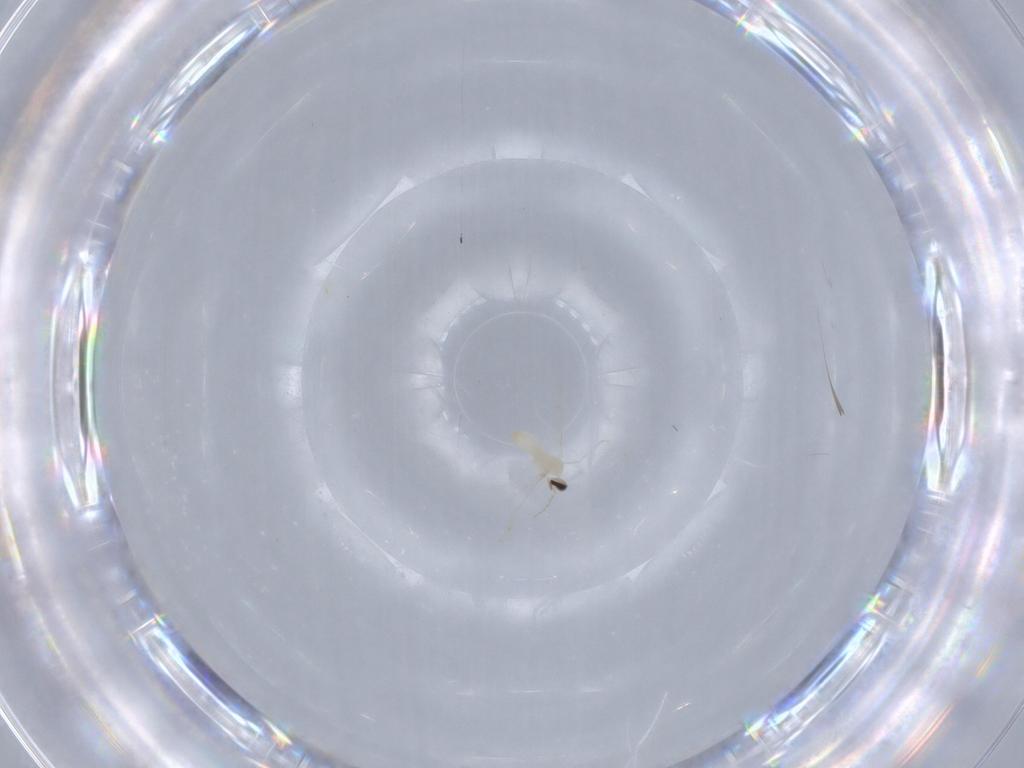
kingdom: Animalia
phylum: Arthropoda
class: Insecta
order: Diptera
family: Cecidomyiidae
